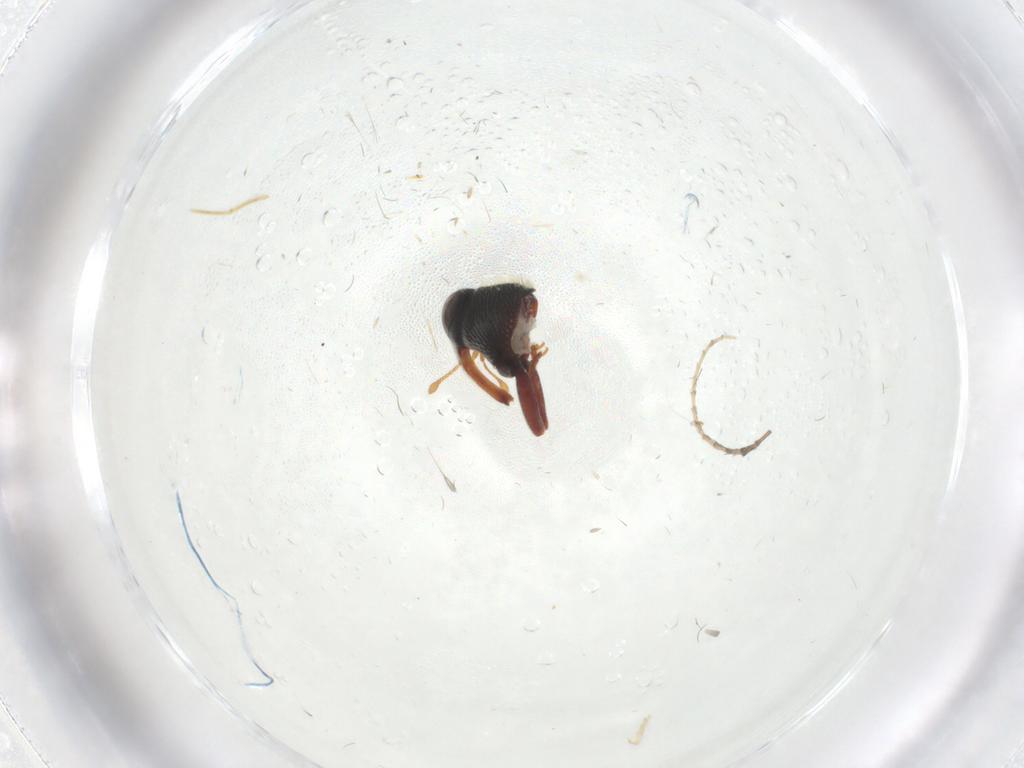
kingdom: Animalia
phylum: Arthropoda
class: Insecta
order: Coleoptera
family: Curculionidae
